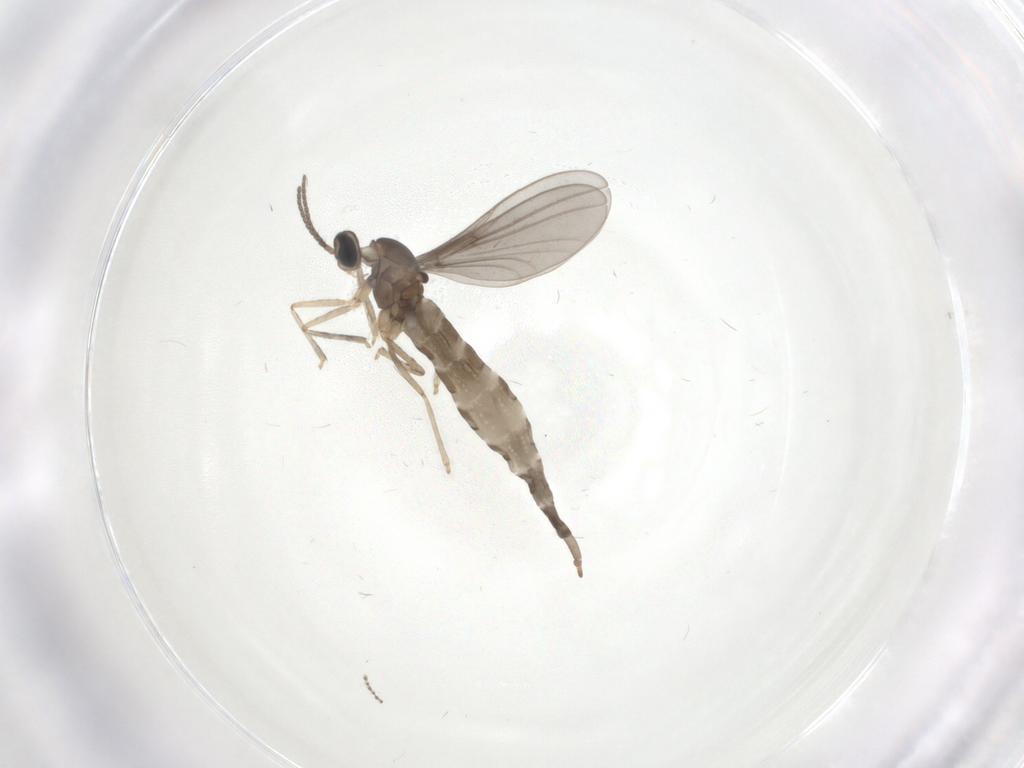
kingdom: Animalia
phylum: Arthropoda
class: Insecta
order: Diptera
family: Cecidomyiidae
